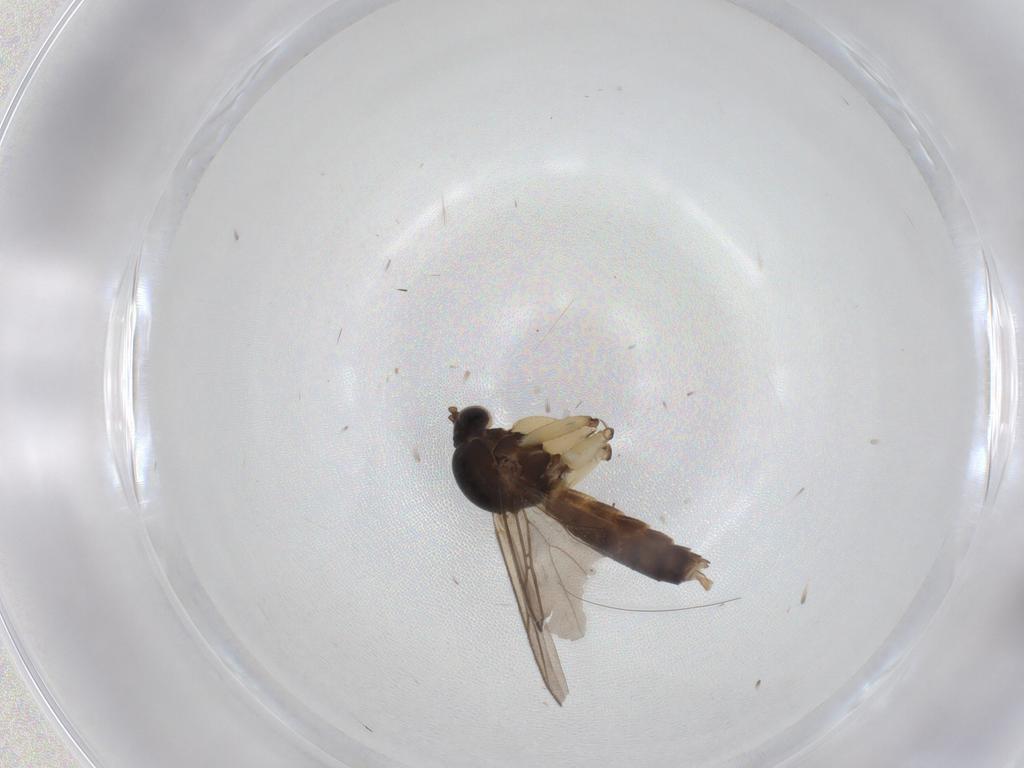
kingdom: Animalia
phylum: Arthropoda
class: Insecta
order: Diptera
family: Cecidomyiidae
